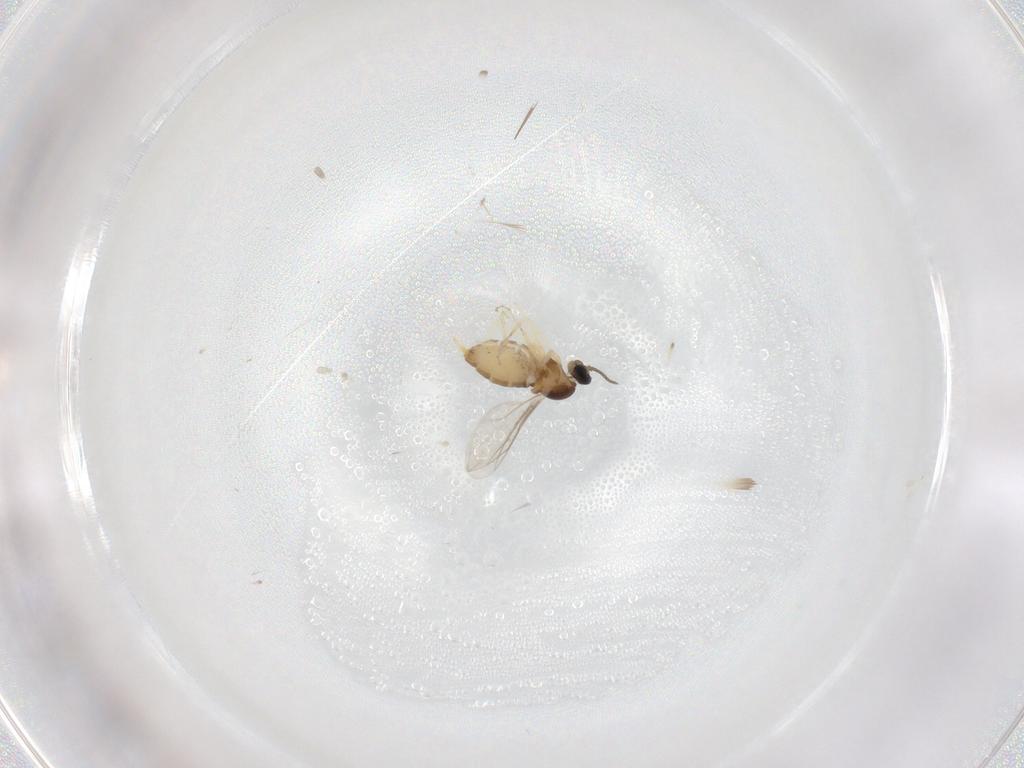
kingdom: Animalia
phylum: Arthropoda
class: Insecta
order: Diptera
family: Cecidomyiidae
